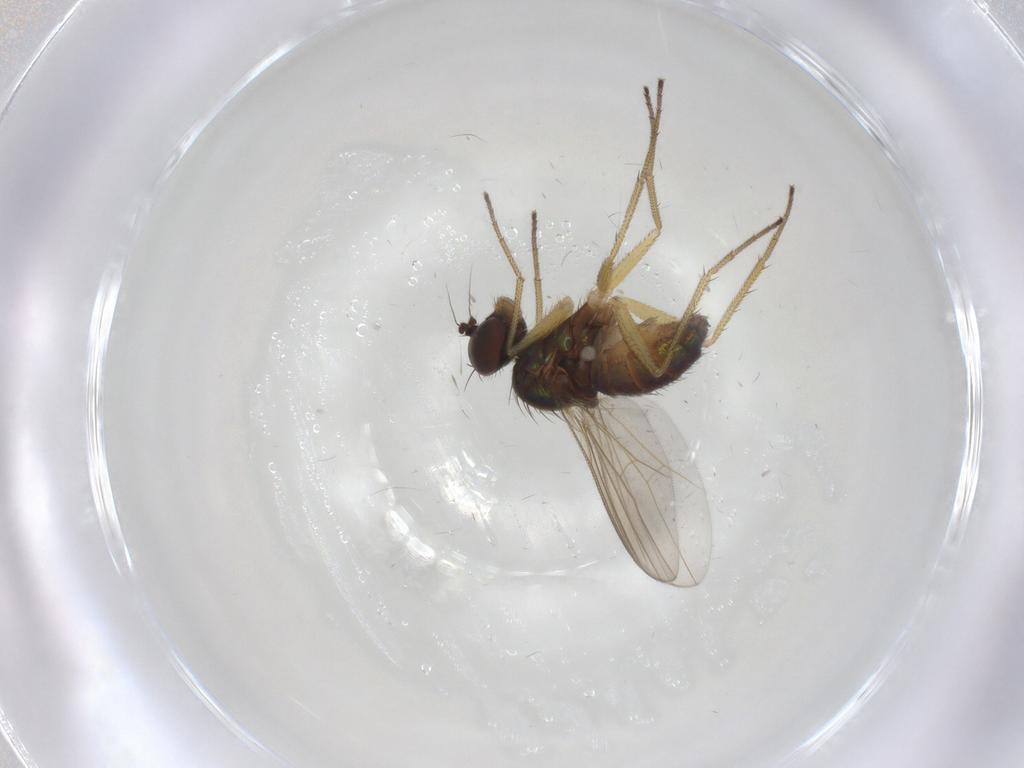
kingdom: Animalia
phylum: Arthropoda
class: Insecta
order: Diptera
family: Dolichopodidae
